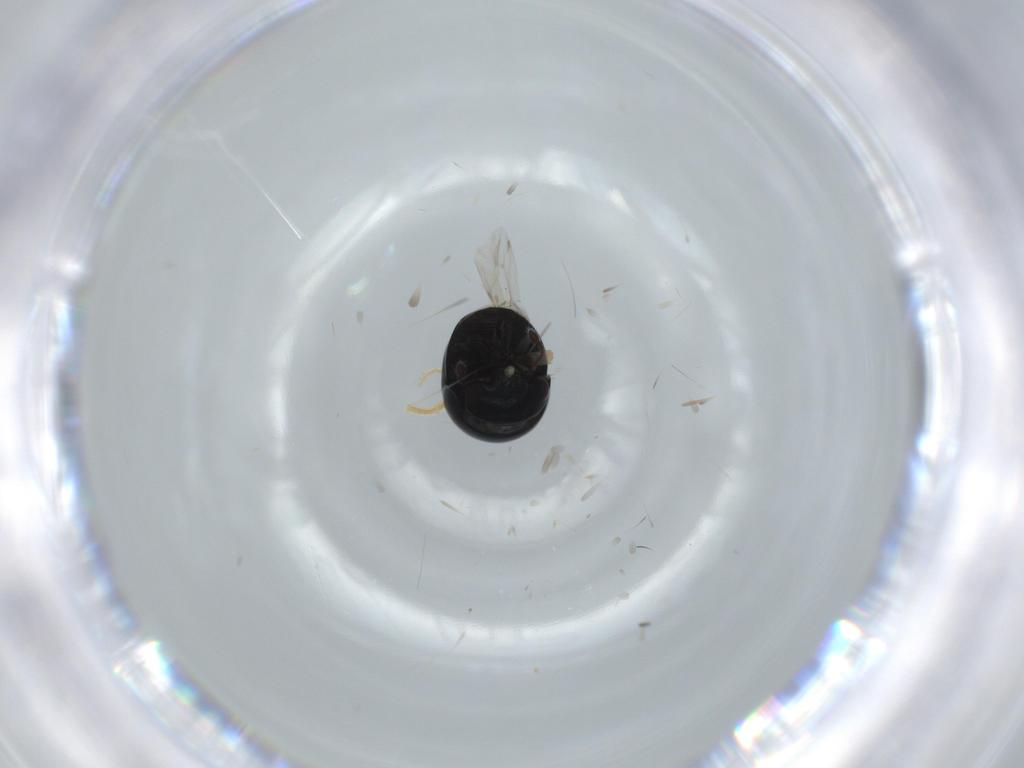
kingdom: Animalia
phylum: Arthropoda
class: Insecta
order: Coleoptera
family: Cybocephalidae
